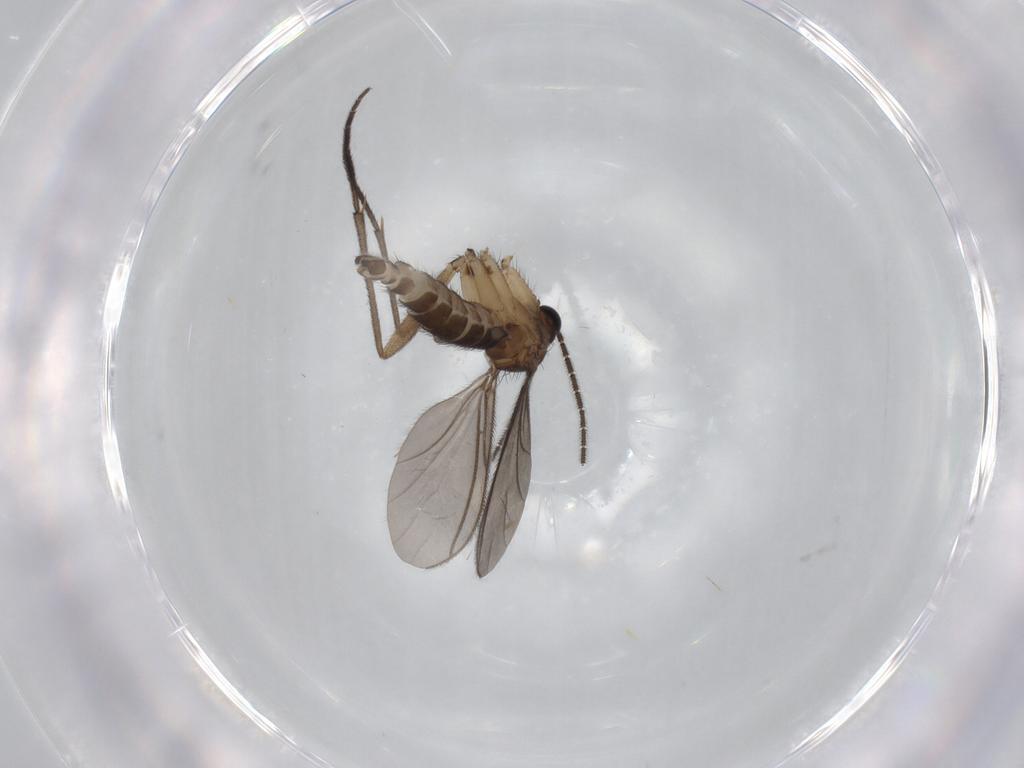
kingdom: Animalia
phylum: Arthropoda
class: Insecta
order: Diptera
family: Sciaridae
